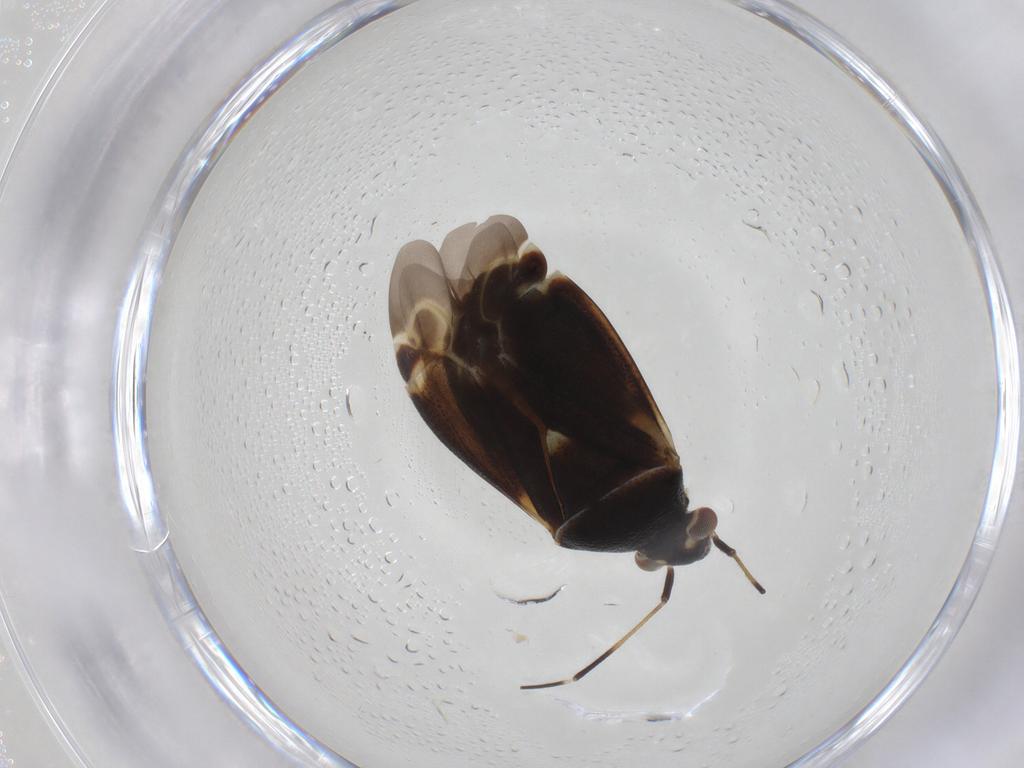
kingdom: Animalia
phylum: Arthropoda
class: Insecta
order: Hemiptera
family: Miridae
